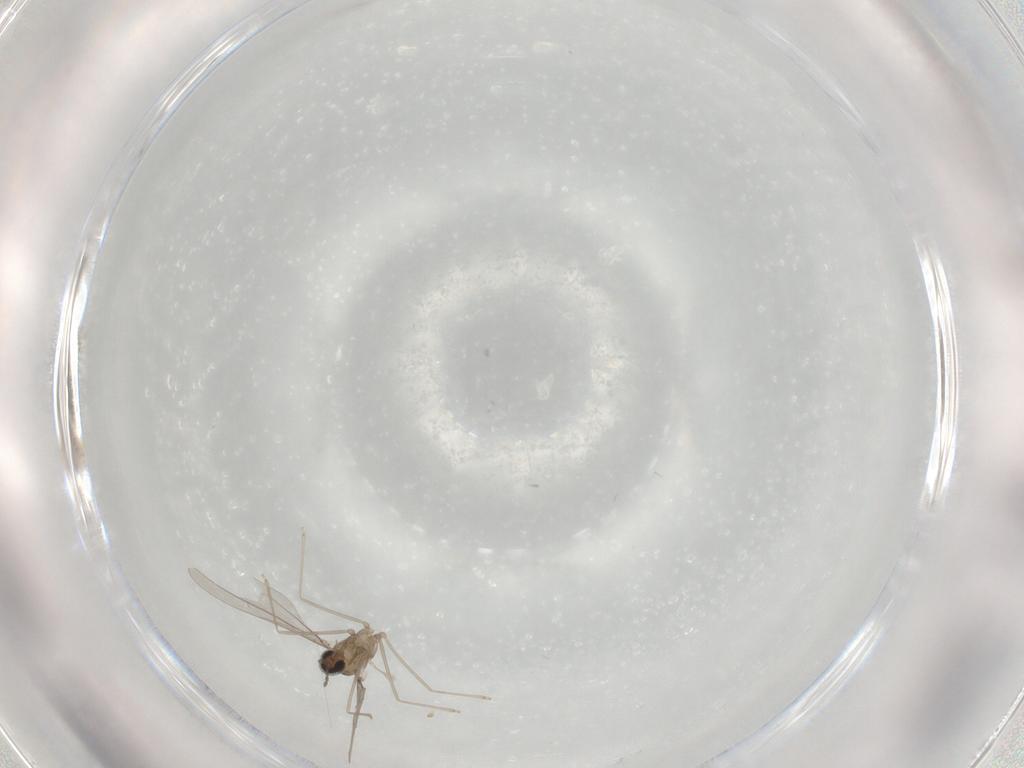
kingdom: Animalia
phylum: Arthropoda
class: Insecta
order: Diptera
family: Cecidomyiidae
